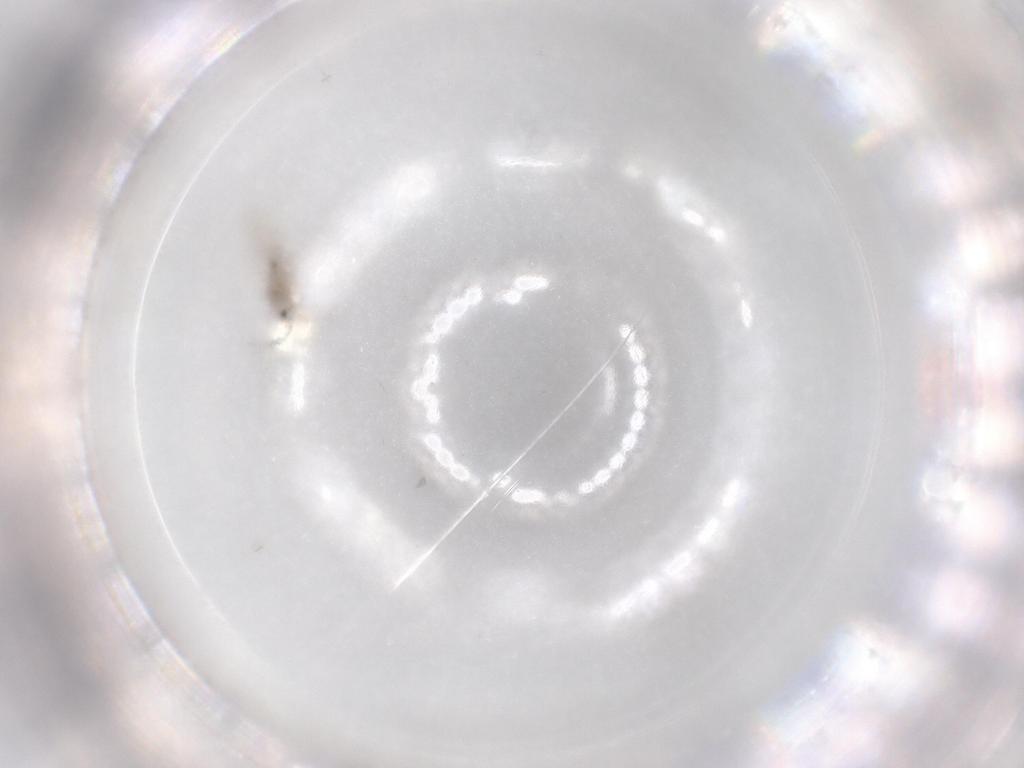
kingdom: Animalia
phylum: Arthropoda
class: Insecta
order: Diptera
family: Cecidomyiidae
